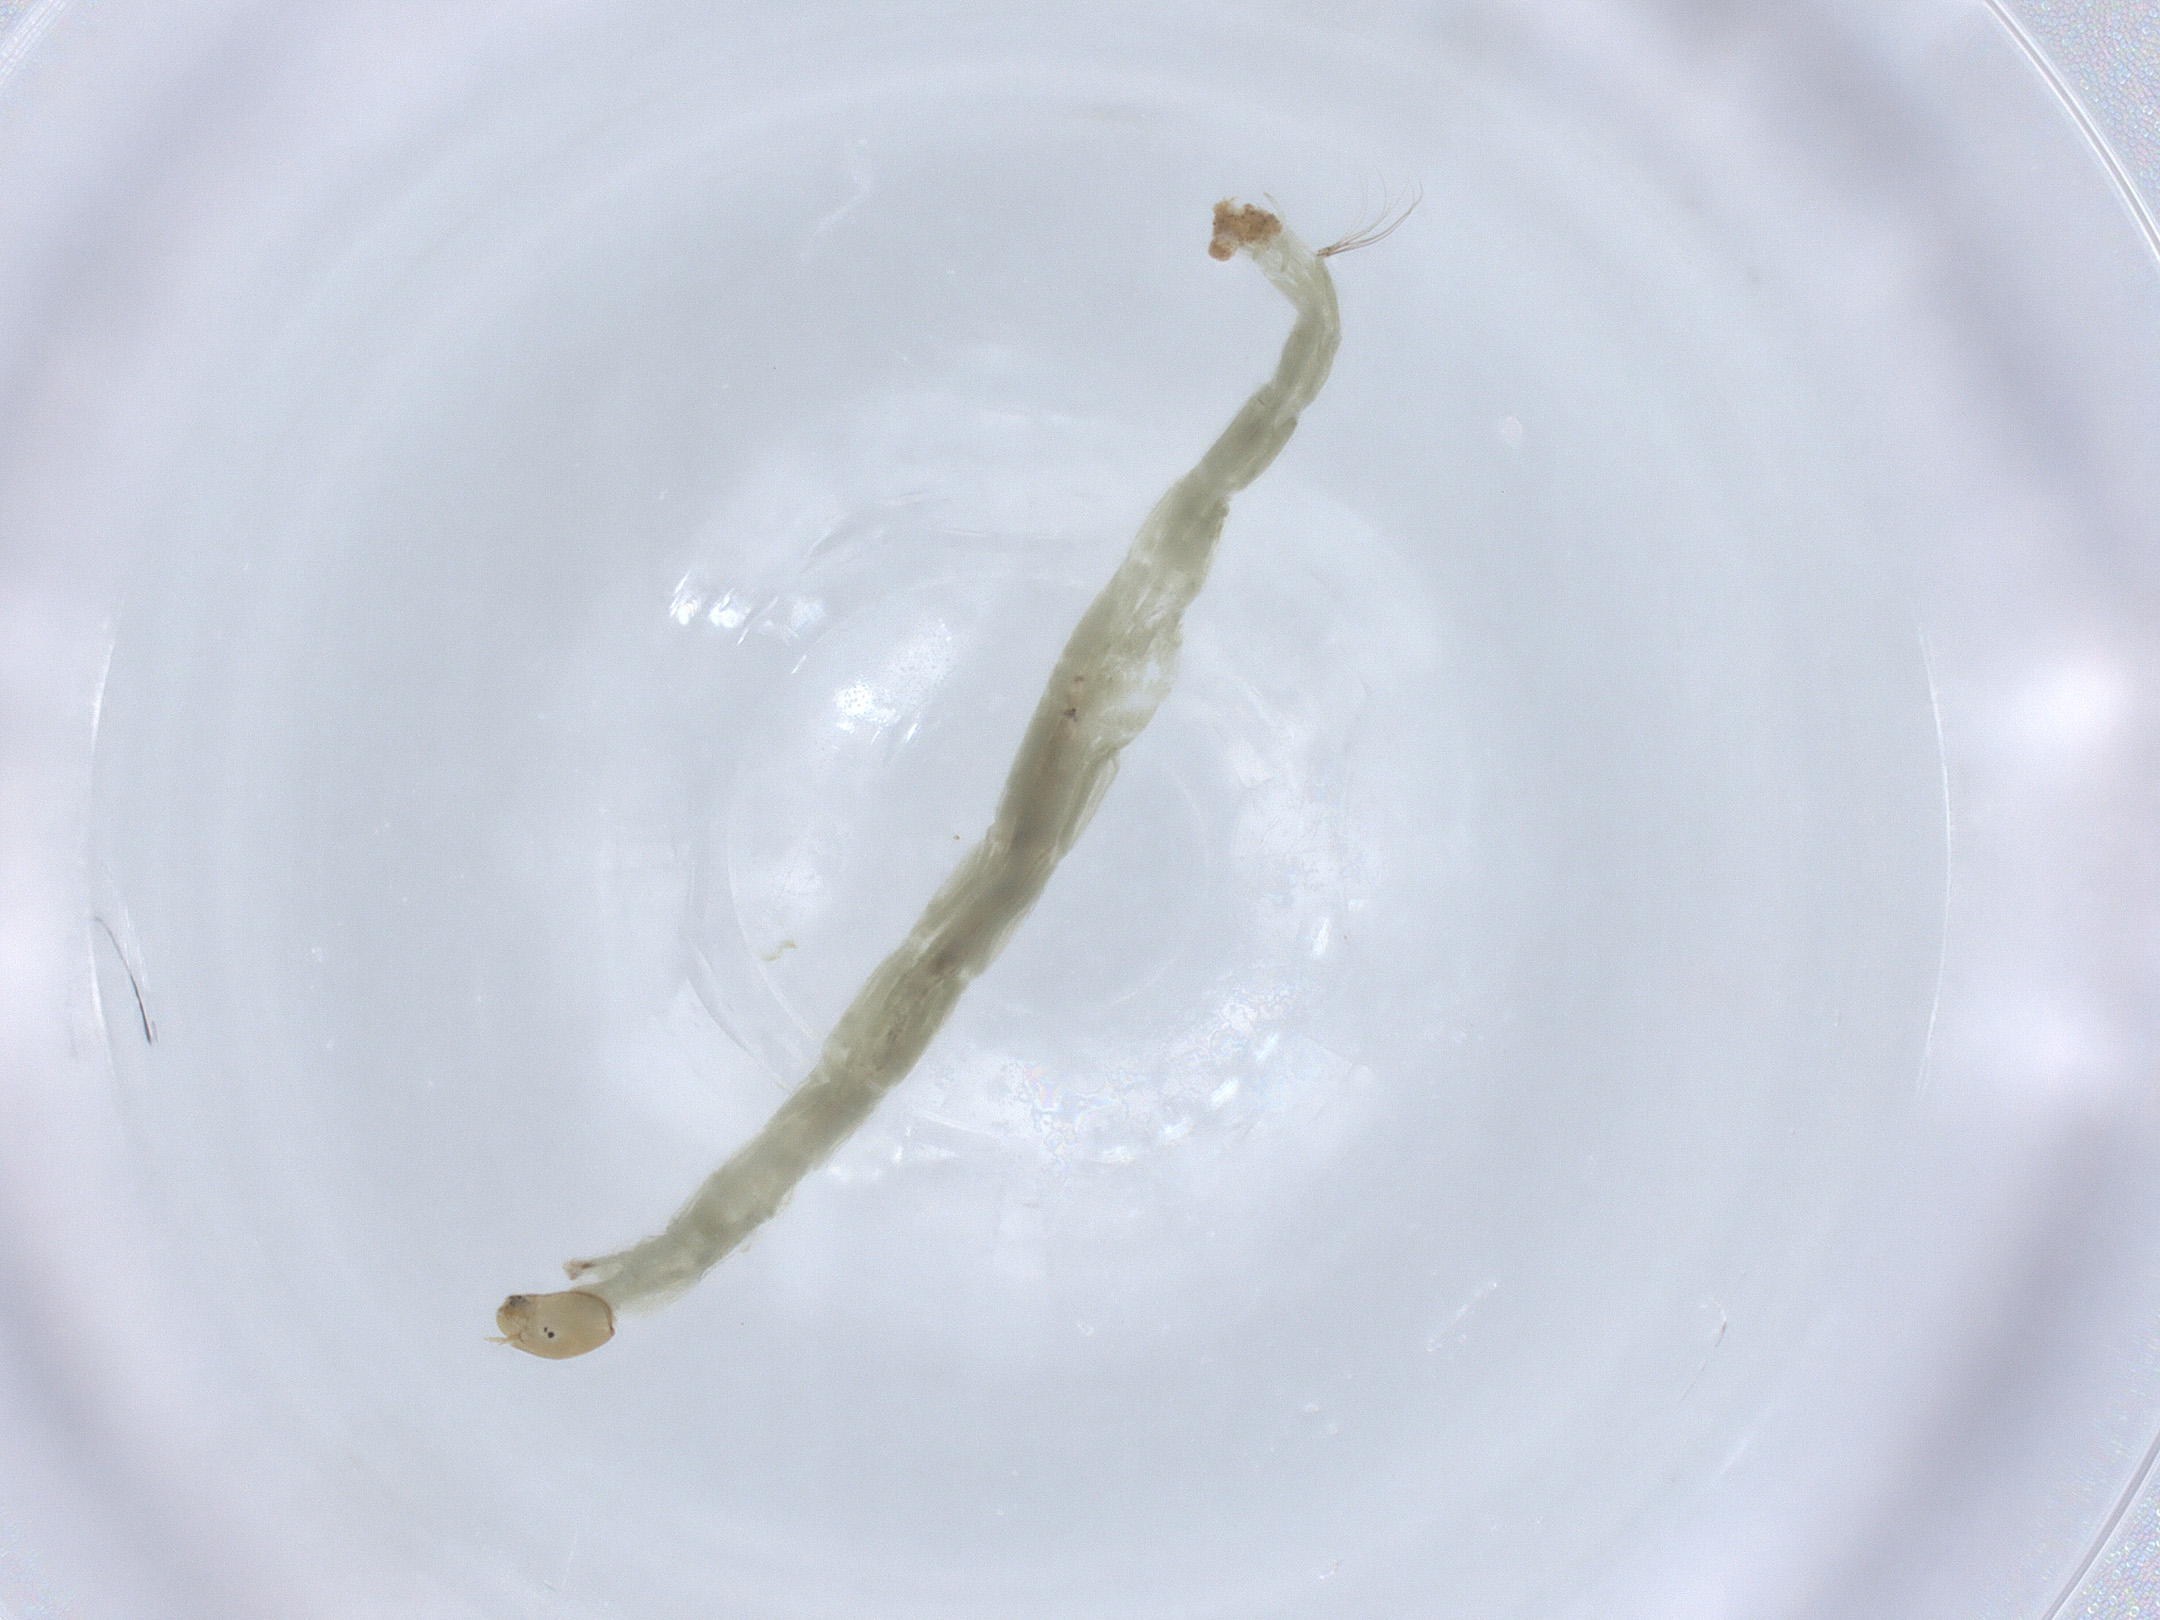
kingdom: Animalia
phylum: Arthropoda
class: Insecta
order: Diptera
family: Chironomidae
